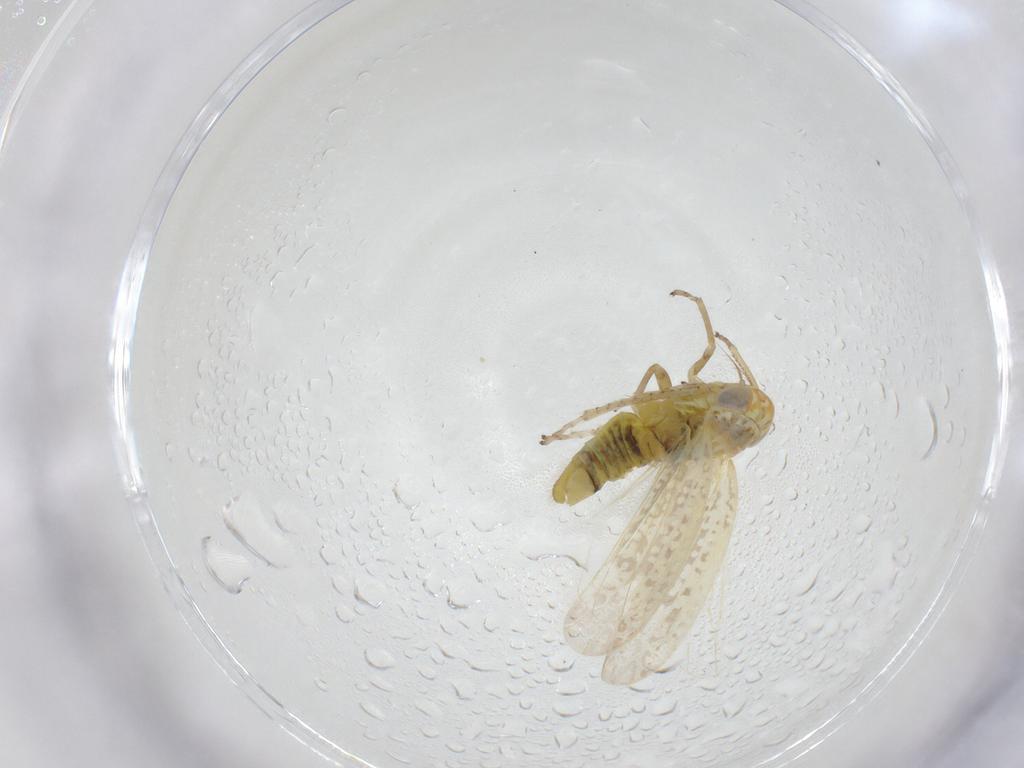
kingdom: Animalia
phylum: Arthropoda
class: Insecta
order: Hemiptera
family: Cicadellidae
